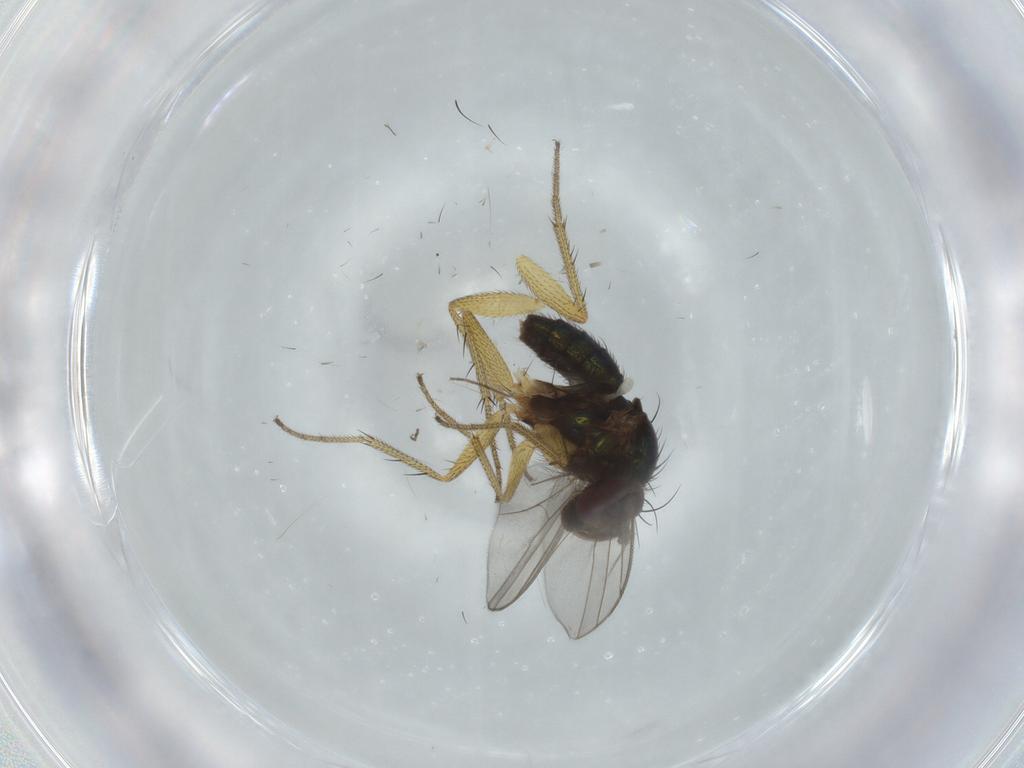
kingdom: Animalia
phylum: Arthropoda
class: Insecta
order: Diptera
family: Dolichopodidae
